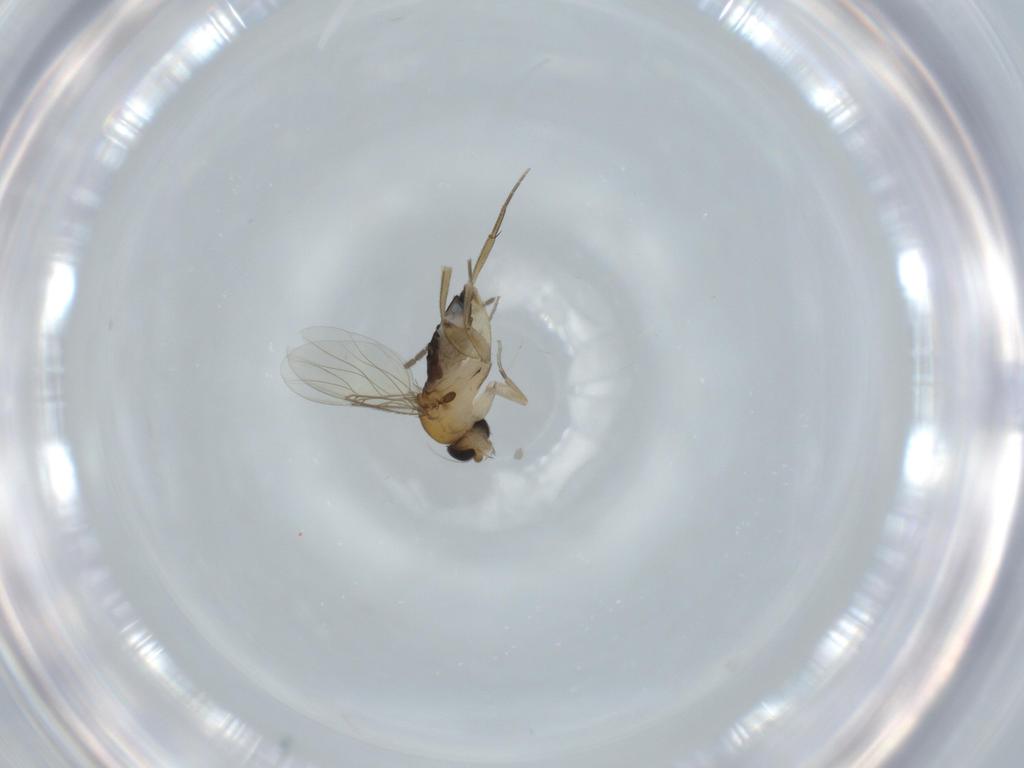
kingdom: Animalia
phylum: Arthropoda
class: Insecta
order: Diptera
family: Sciaridae
